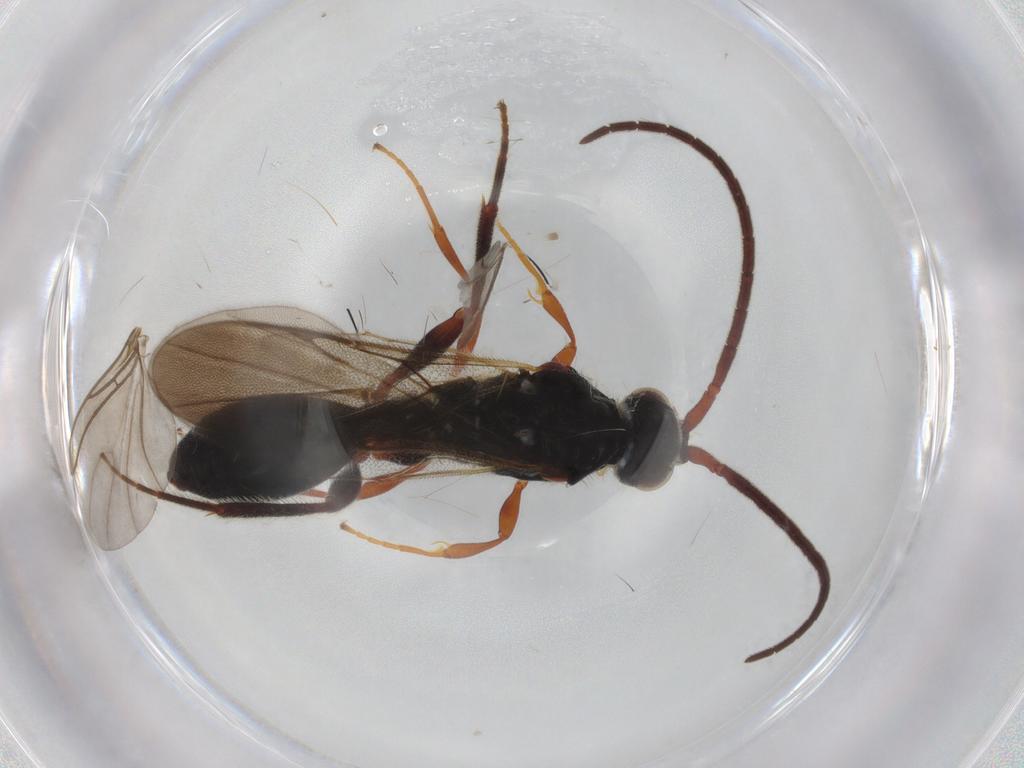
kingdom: Animalia
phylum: Arthropoda
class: Insecta
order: Hymenoptera
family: Diapriidae
